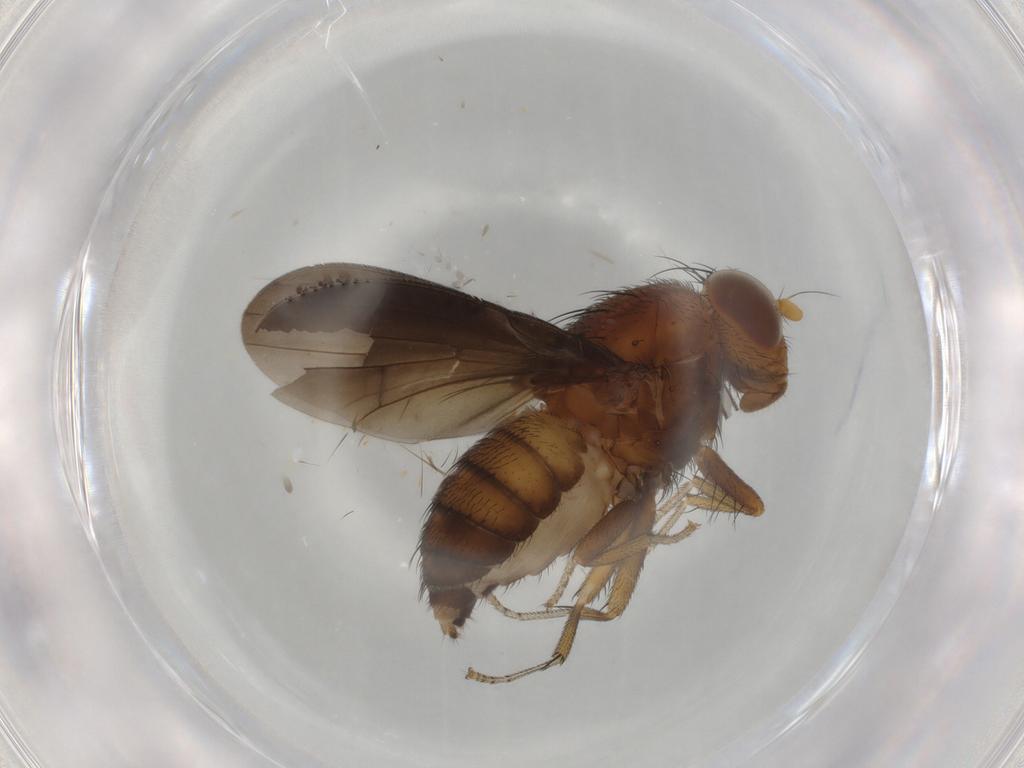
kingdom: Animalia
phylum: Arthropoda
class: Insecta
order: Diptera
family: Ceratopogonidae
